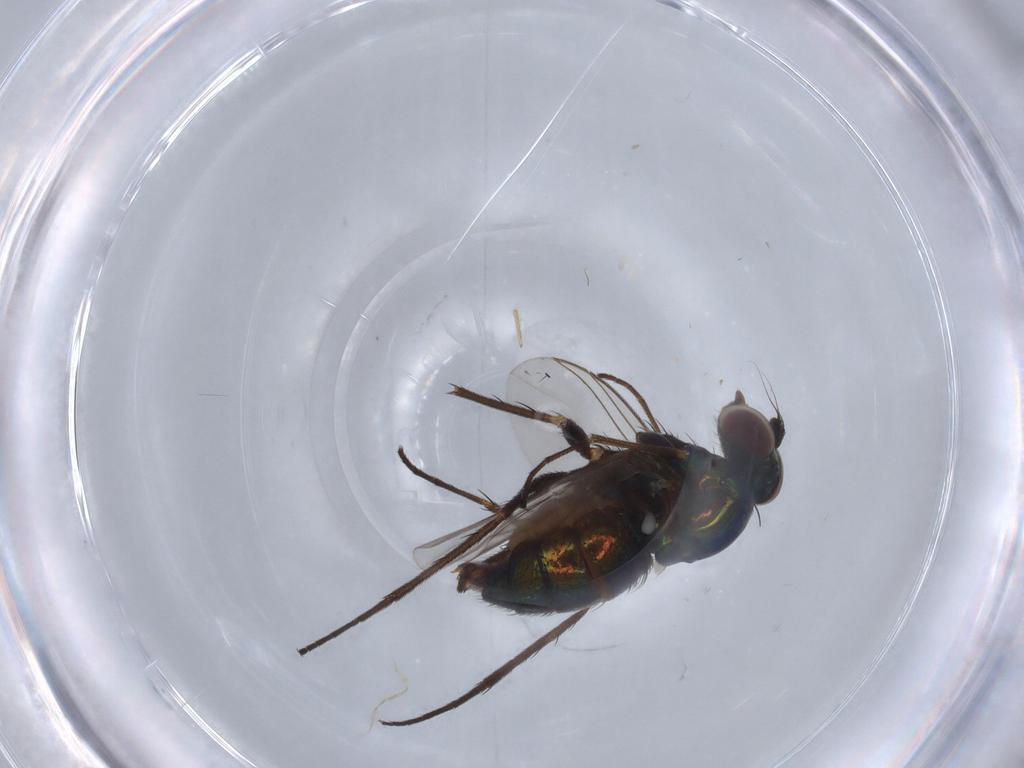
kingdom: Animalia
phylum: Arthropoda
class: Insecta
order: Diptera
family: Dolichopodidae
